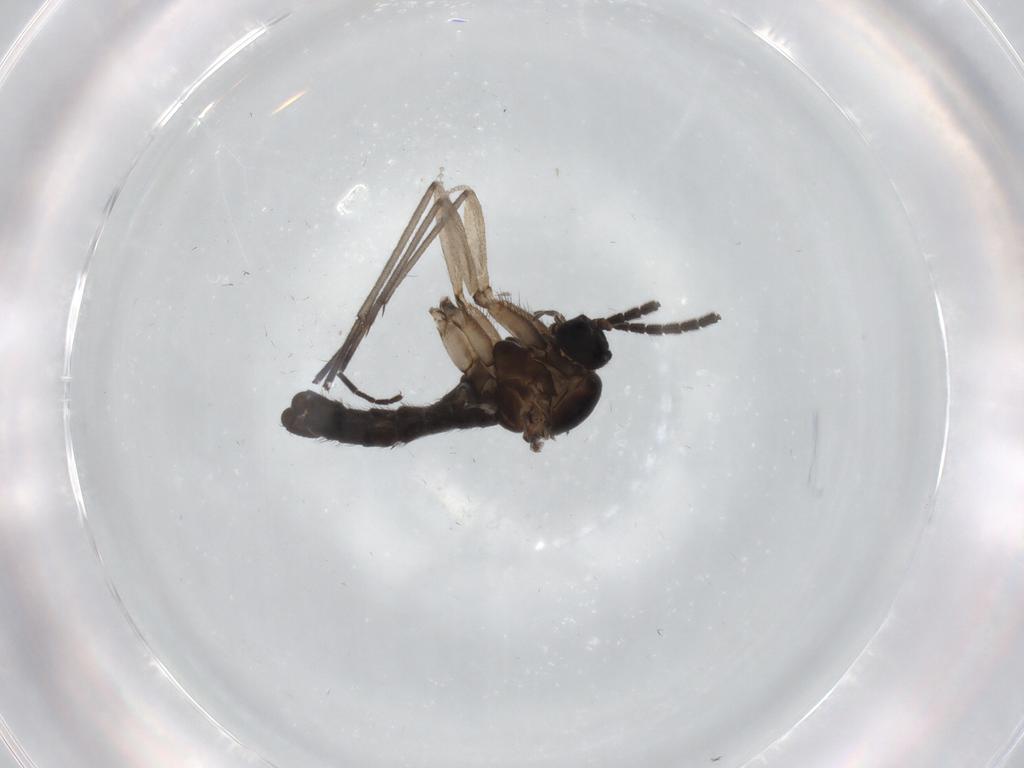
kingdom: Animalia
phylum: Arthropoda
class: Insecta
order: Diptera
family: Sciaridae
